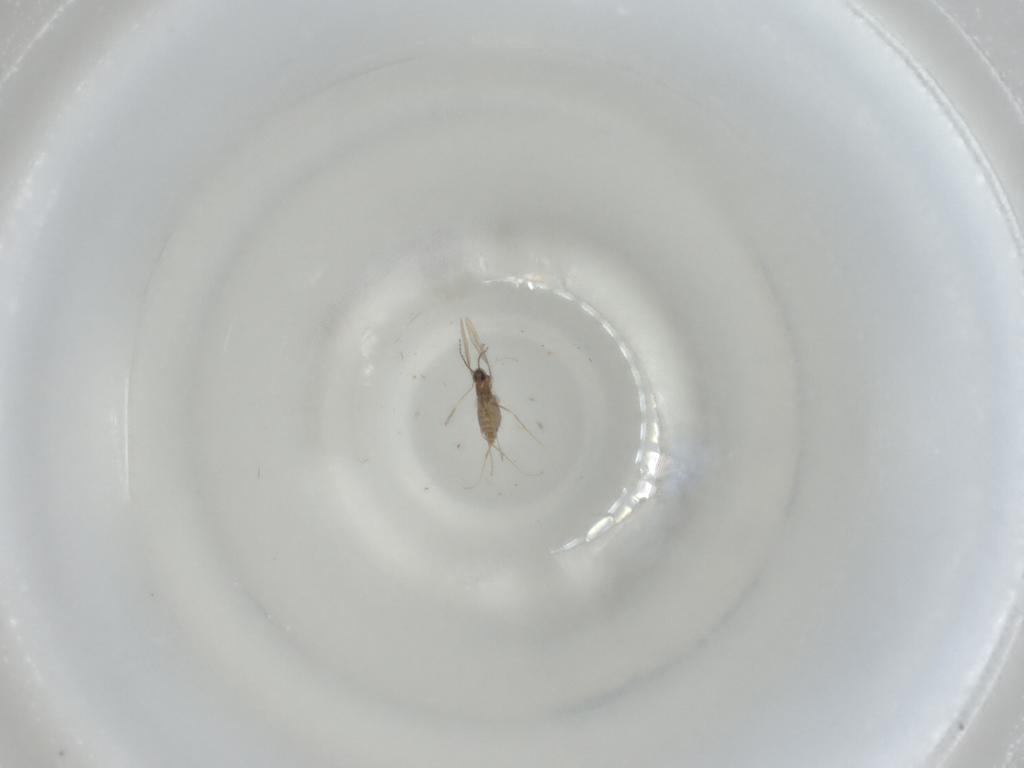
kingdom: Animalia
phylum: Arthropoda
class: Insecta
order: Diptera
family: Cecidomyiidae
